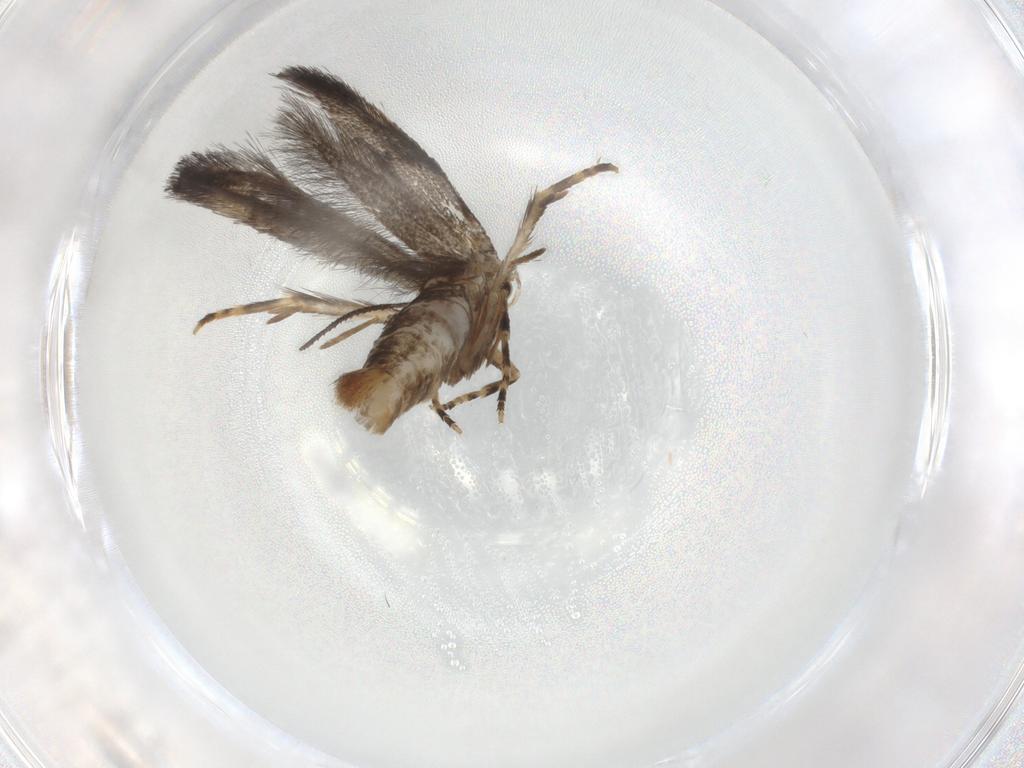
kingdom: Animalia
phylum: Arthropoda
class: Insecta
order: Lepidoptera
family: Elachistidae
